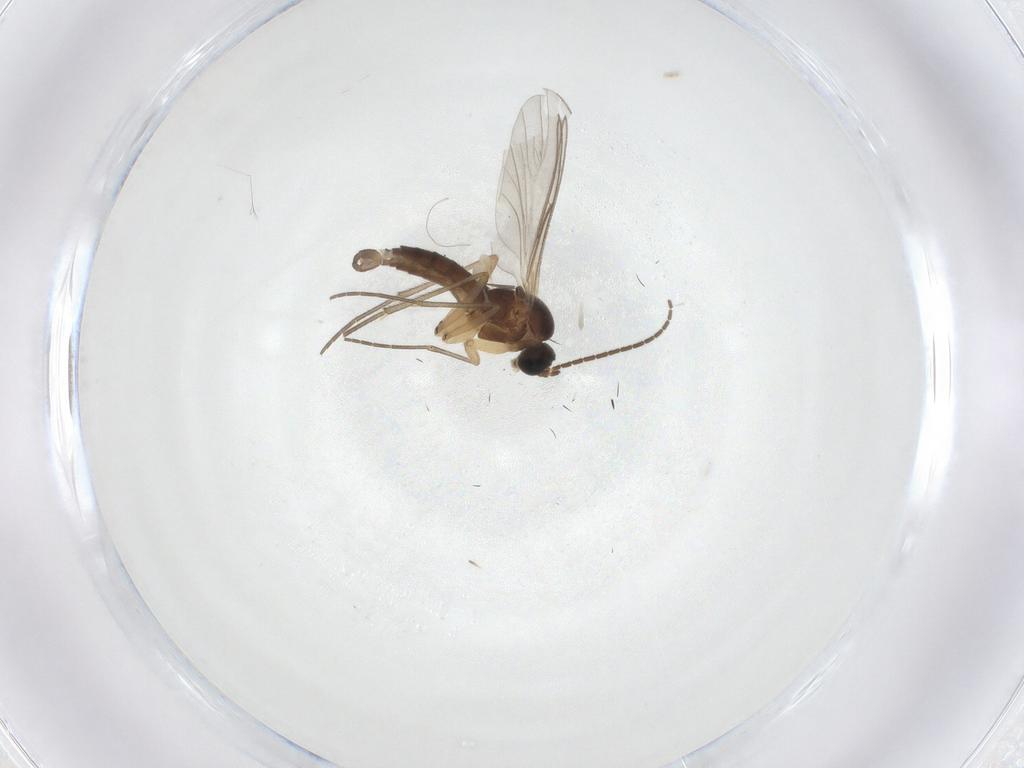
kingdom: Animalia
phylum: Arthropoda
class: Insecta
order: Diptera
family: Sciaridae
